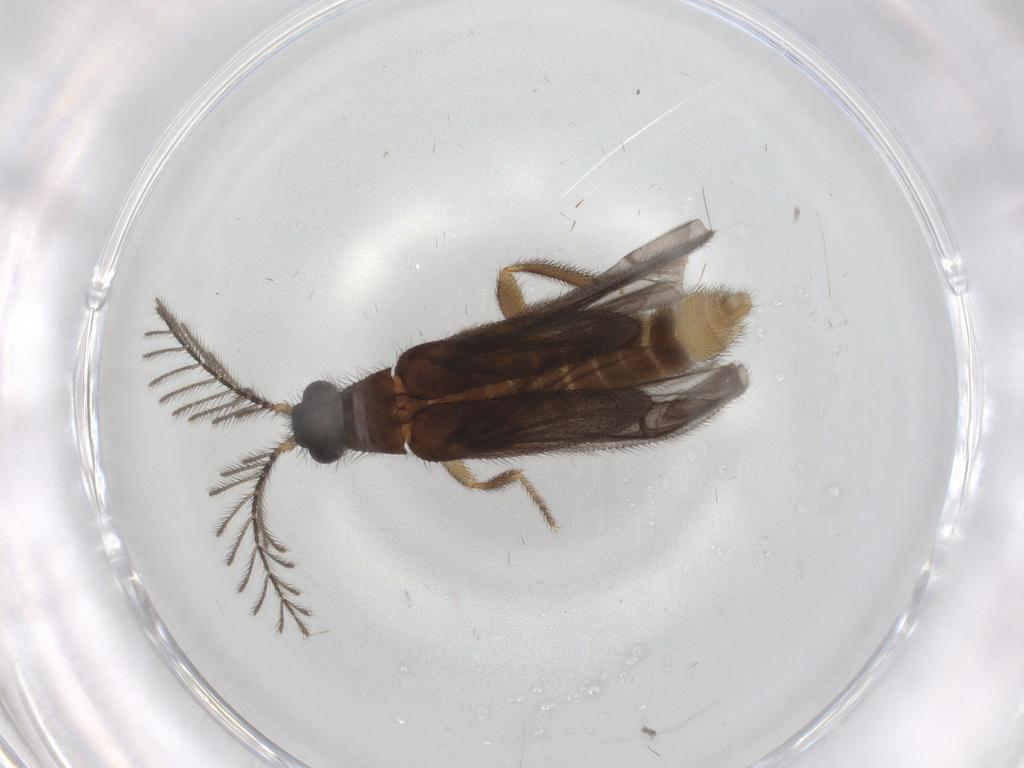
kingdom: Animalia
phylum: Arthropoda
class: Insecta
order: Coleoptera
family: Phengodidae
